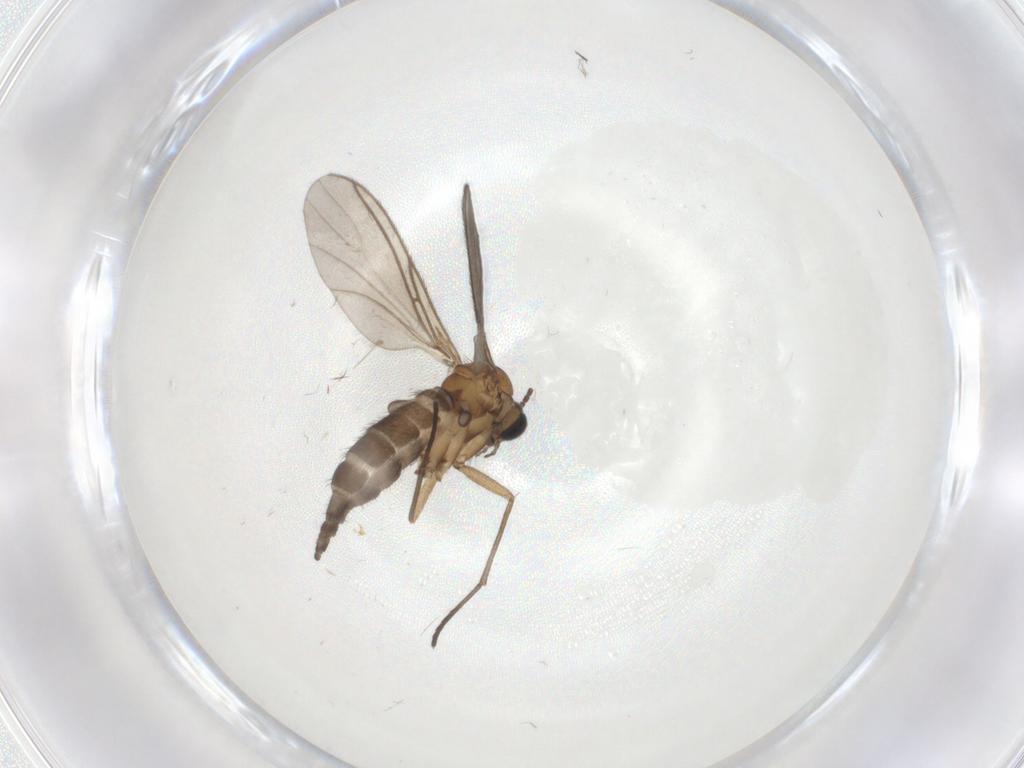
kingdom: Animalia
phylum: Arthropoda
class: Insecta
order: Diptera
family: Sciaridae
